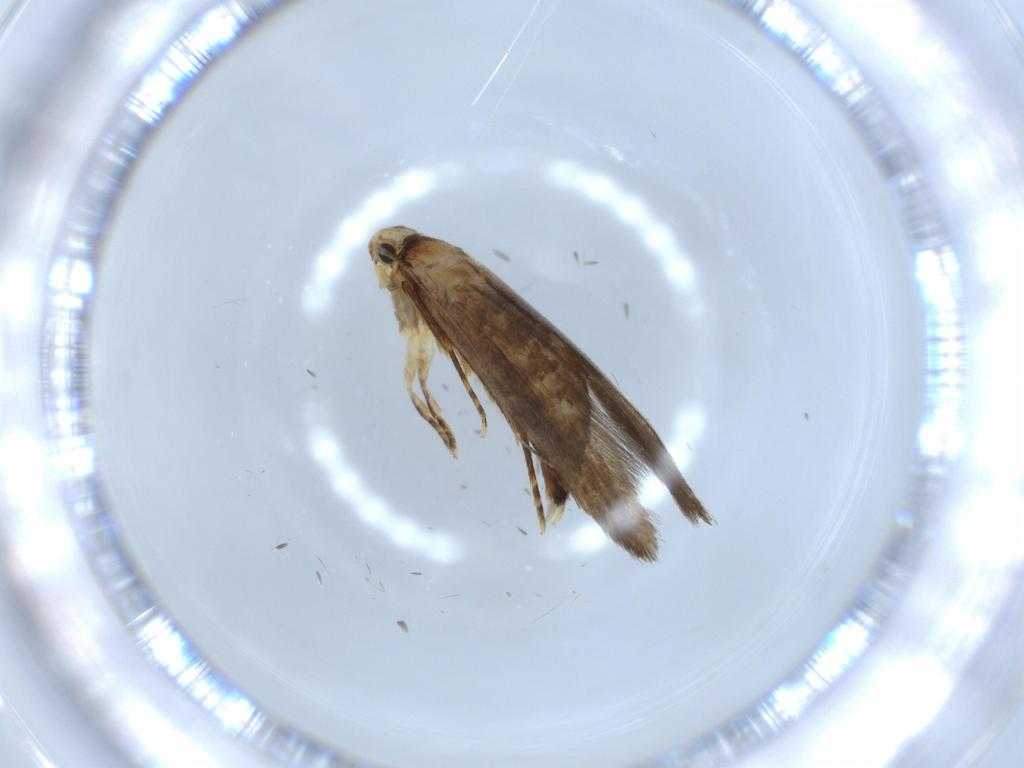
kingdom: Animalia
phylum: Arthropoda
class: Insecta
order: Lepidoptera
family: Tineidae
